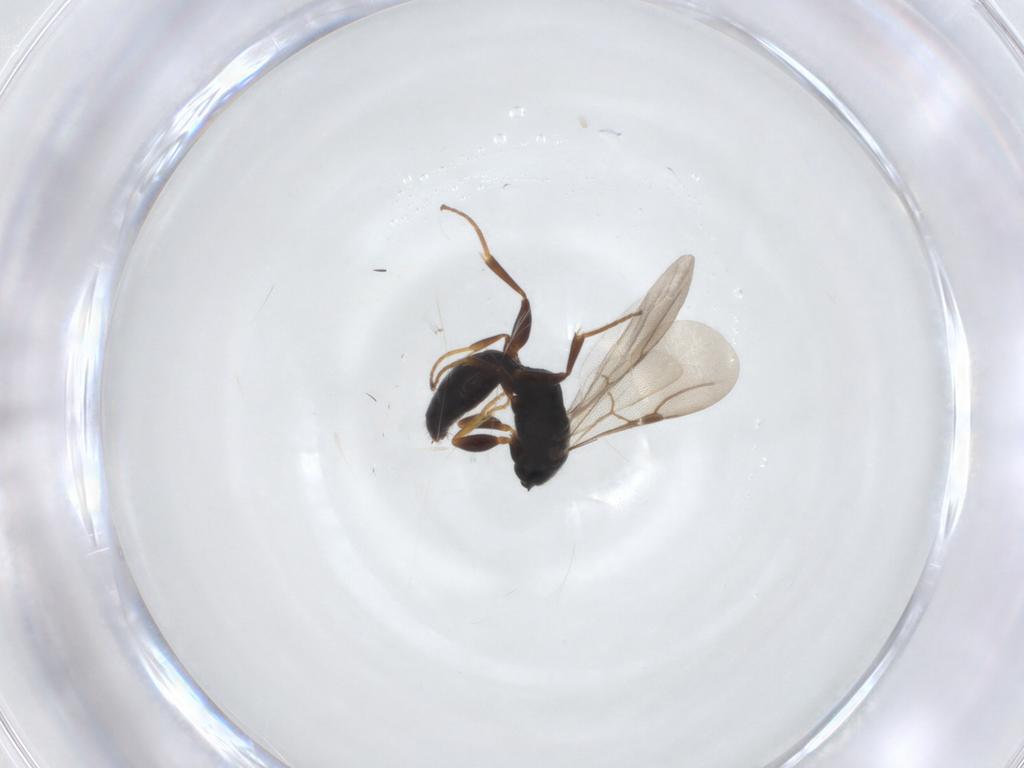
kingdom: Animalia
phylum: Arthropoda
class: Insecta
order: Hymenoptera
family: Bethylidae
